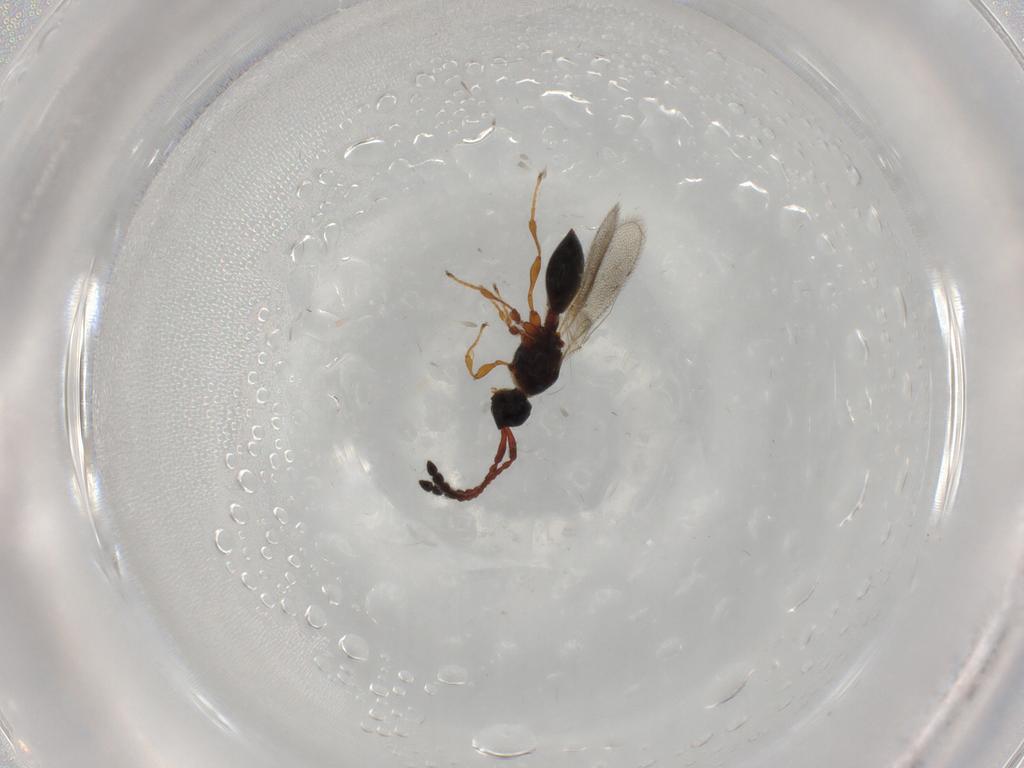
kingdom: Animalia
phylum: Arthropoda
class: Insecta
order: Hymenoptera
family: Diapriidae
